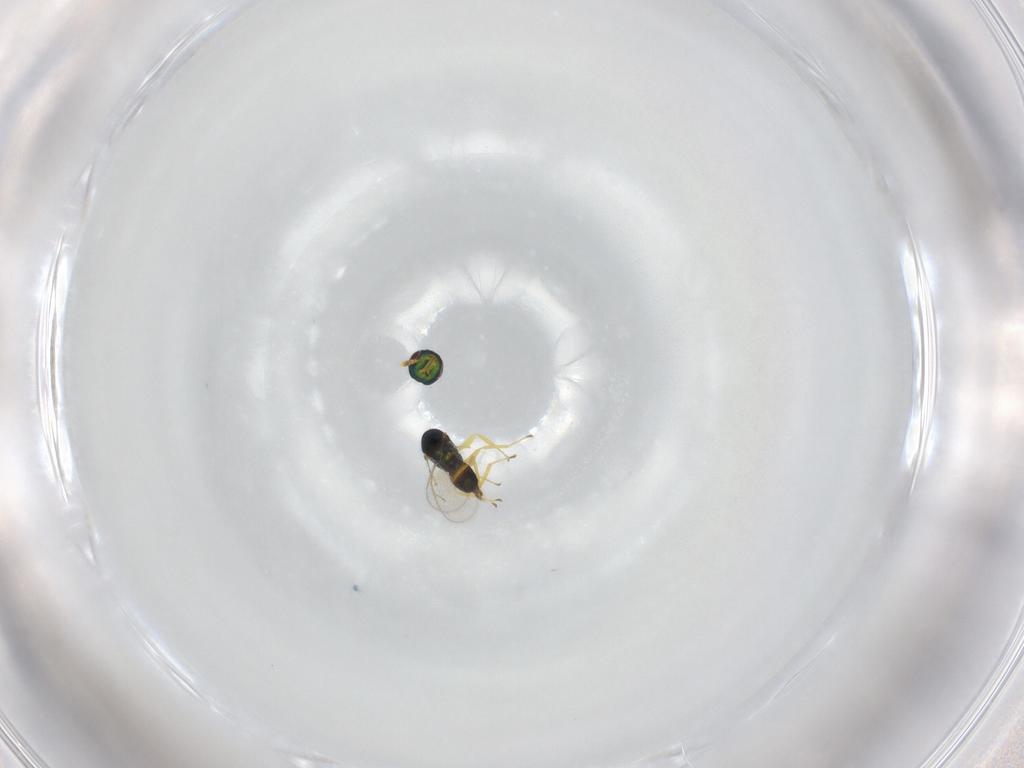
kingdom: Animalia
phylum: Arthropoda
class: Insecta
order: Hymenoptera
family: Pteromalidae
